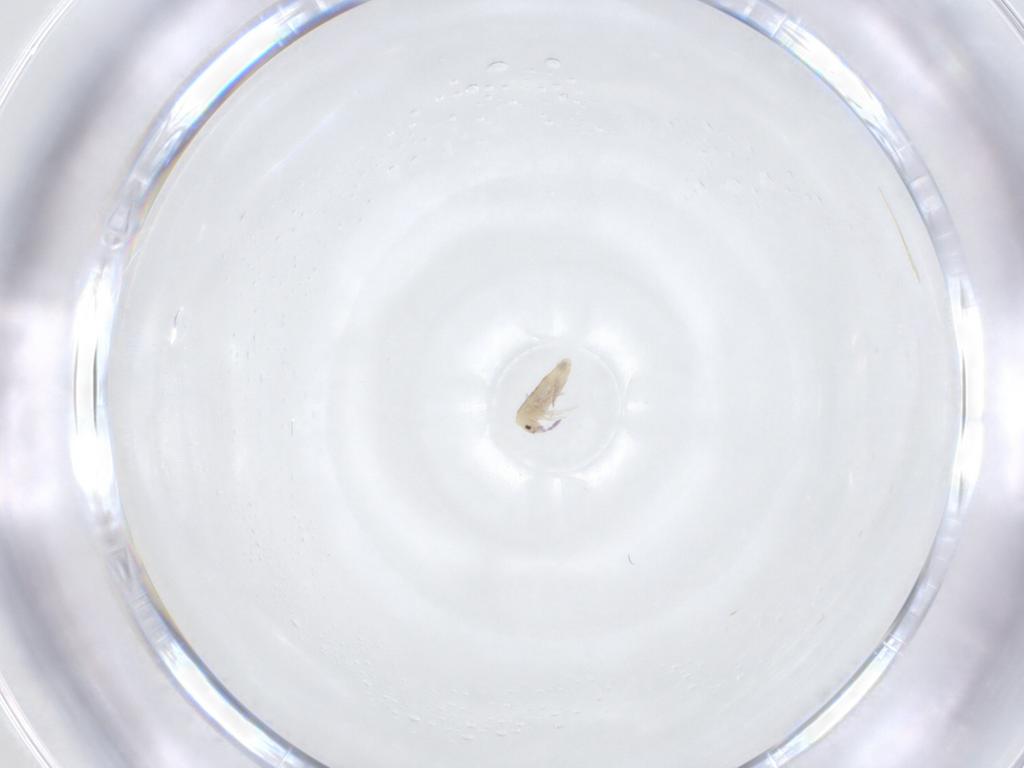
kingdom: Animalia
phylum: Arthropoda
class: Collembola
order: Entomobryomorpha
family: Entomobryidae
